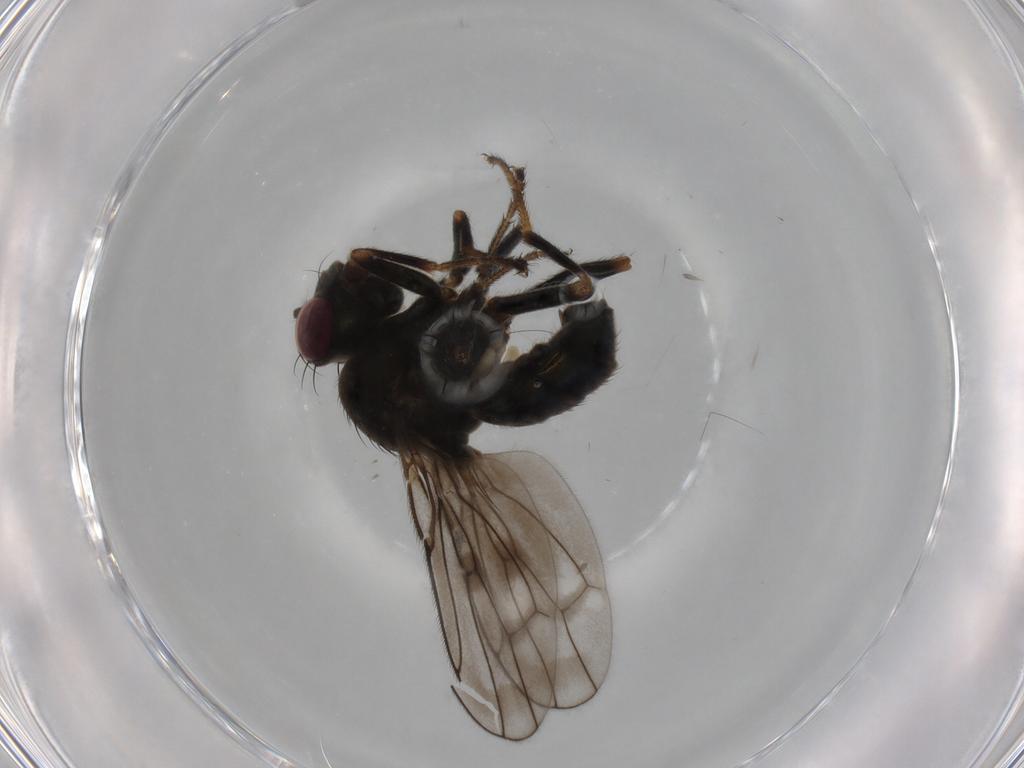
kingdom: Animalia
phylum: Arthropoda
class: Insecta
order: Diptera
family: Ephydridae
